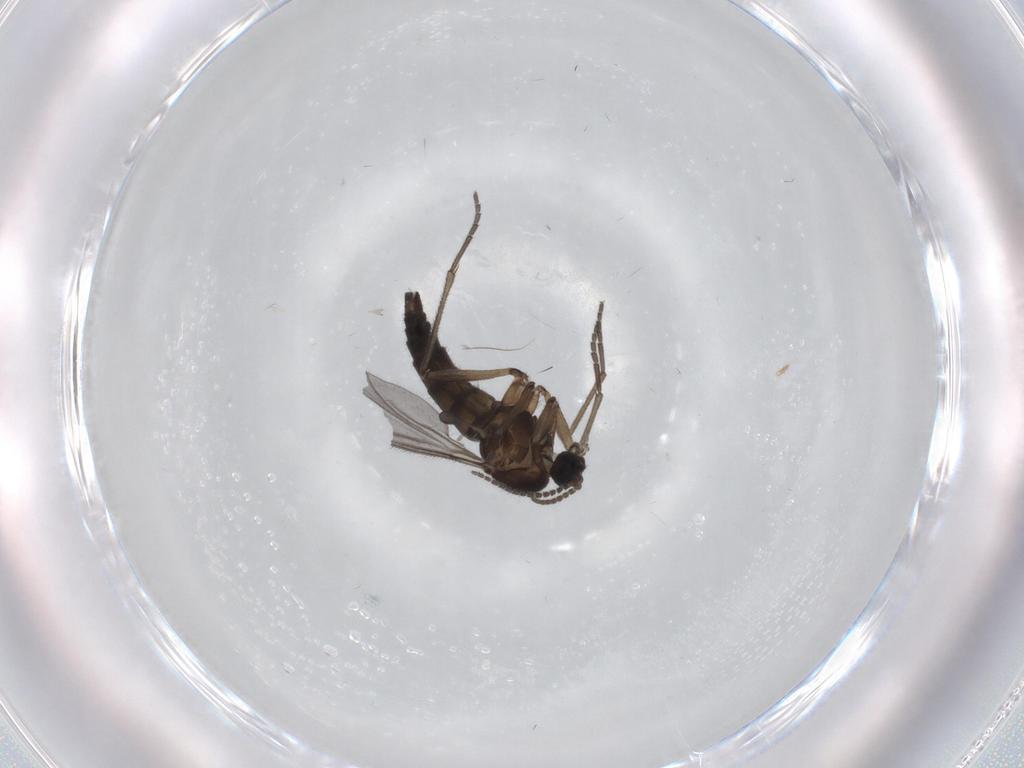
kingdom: Animalia
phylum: Arthropoda
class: Insecta
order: Diptera
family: Sciaridae
